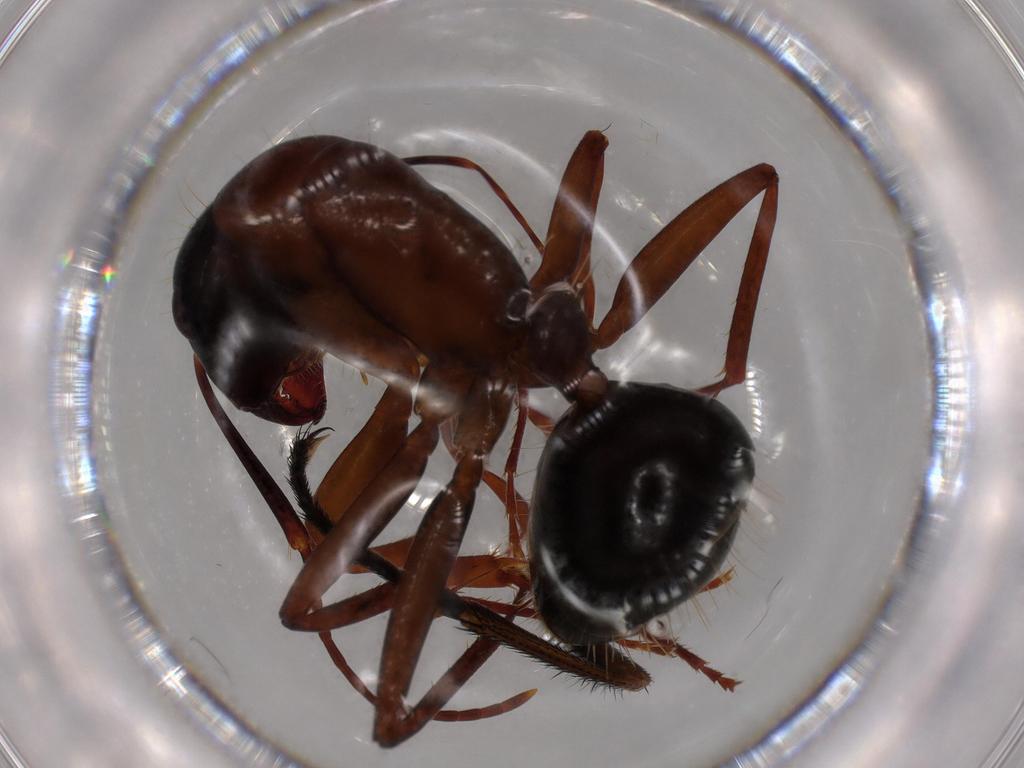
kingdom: Animalia
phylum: Arthropoda
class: Insecta
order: Hymenoptera
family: Formicidae
